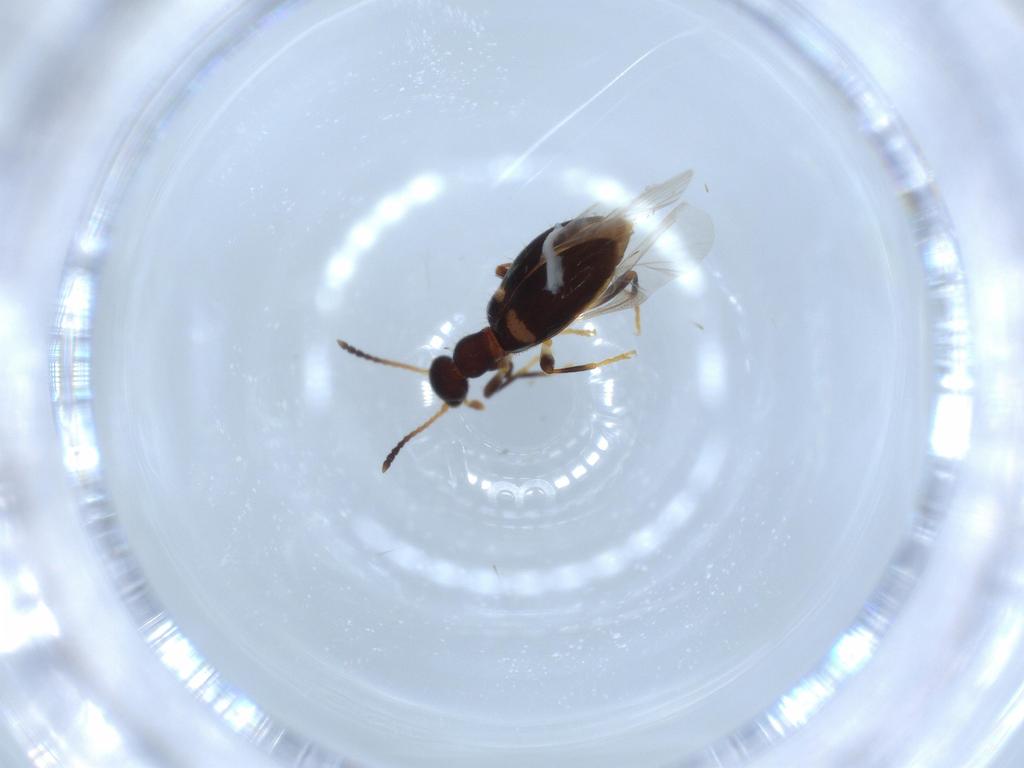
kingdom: Animalia
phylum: Arthropoda
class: Insecta
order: Coleoptera
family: Anthicidae
